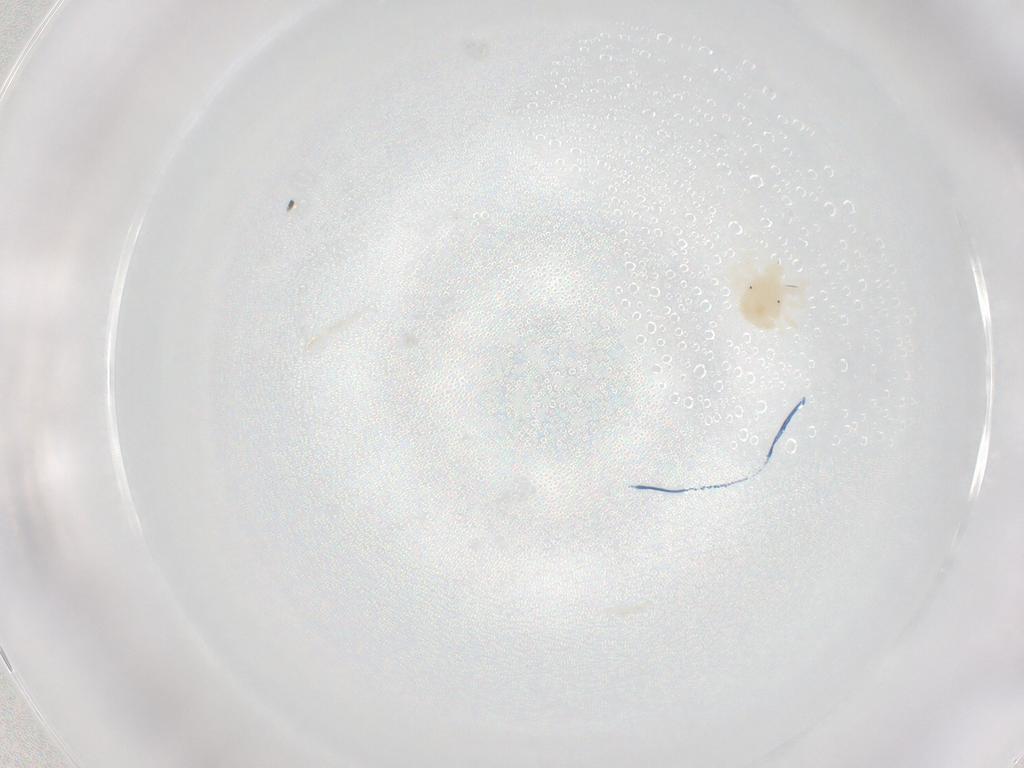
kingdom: Animalia
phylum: Arthropoda
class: Arachnida
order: Trombidiformes
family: Anystidae
